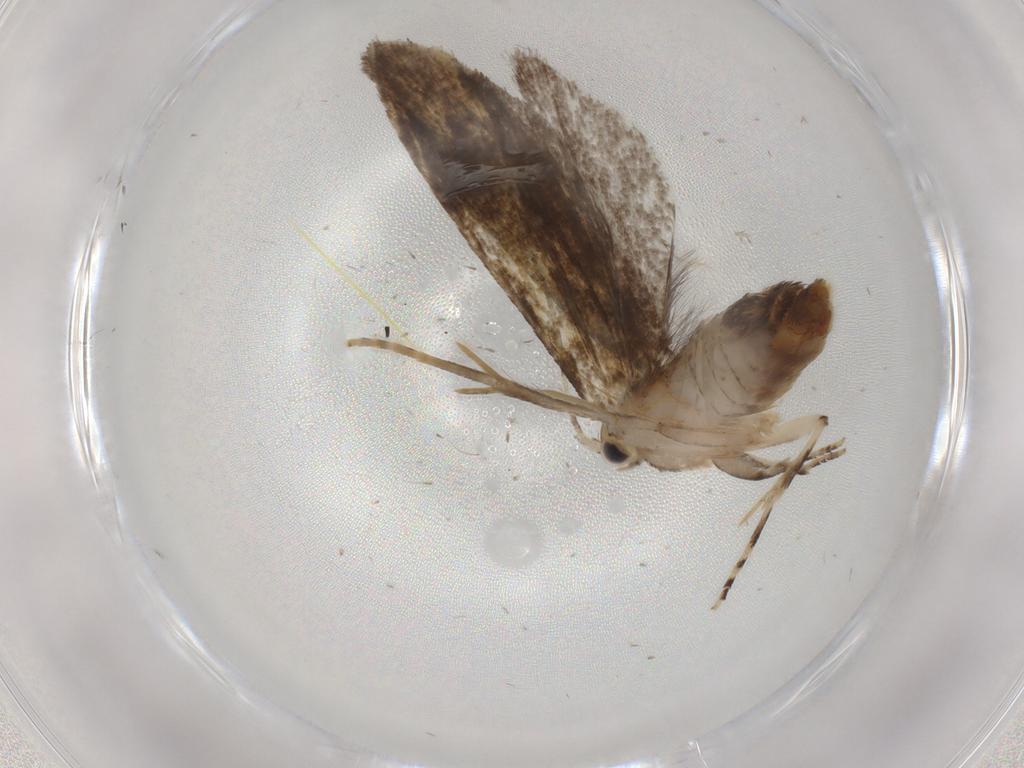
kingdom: Animalia
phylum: Arthropoda
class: Insecta
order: Lepidoptera
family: Tineidae
